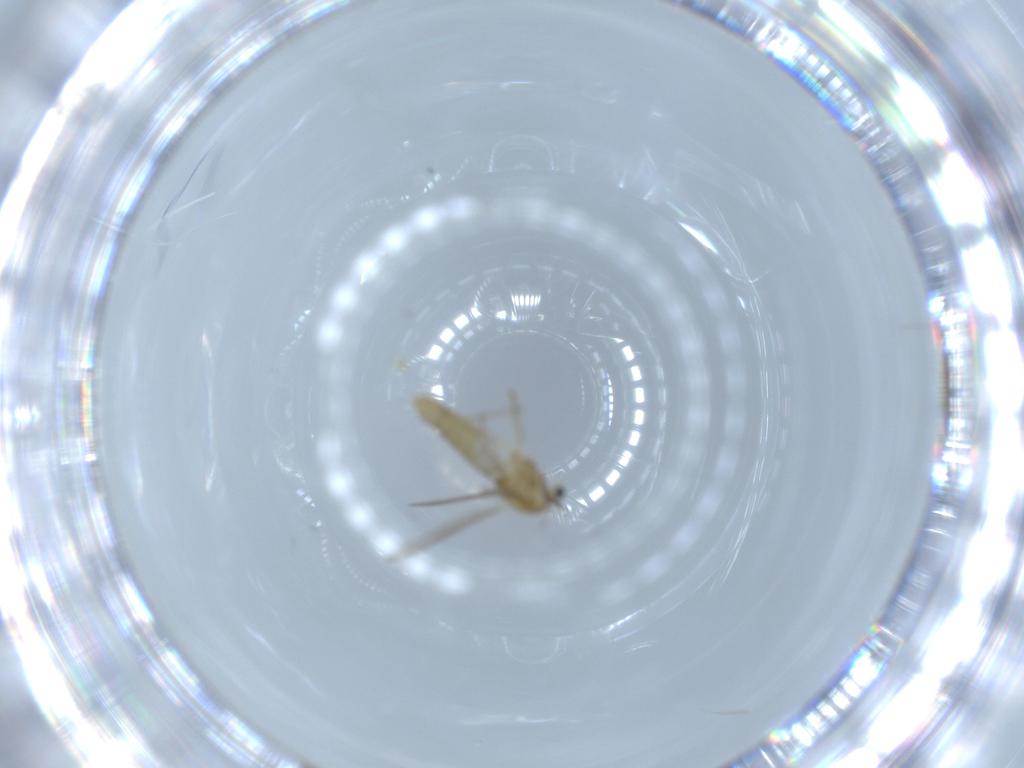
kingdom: Animalia
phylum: Arthropoda
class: Insecta
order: Diptera
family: Chironomidae
